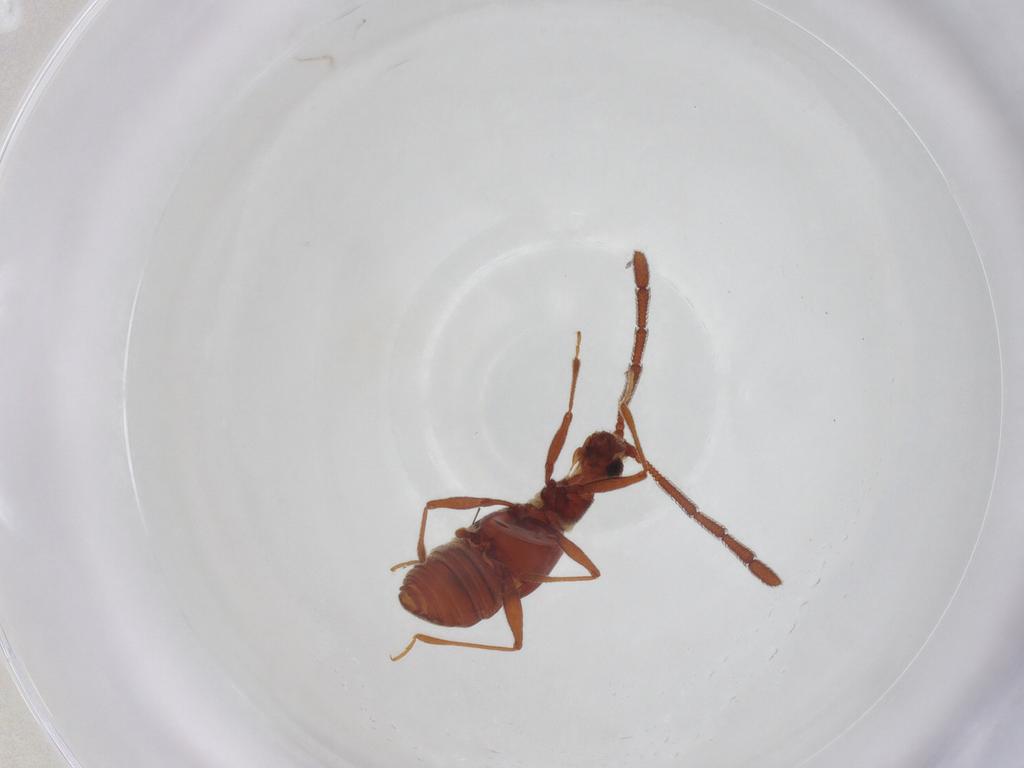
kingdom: Animalia
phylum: Arthropoda
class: Insecta
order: Coleoptera
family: Staphylinidae
